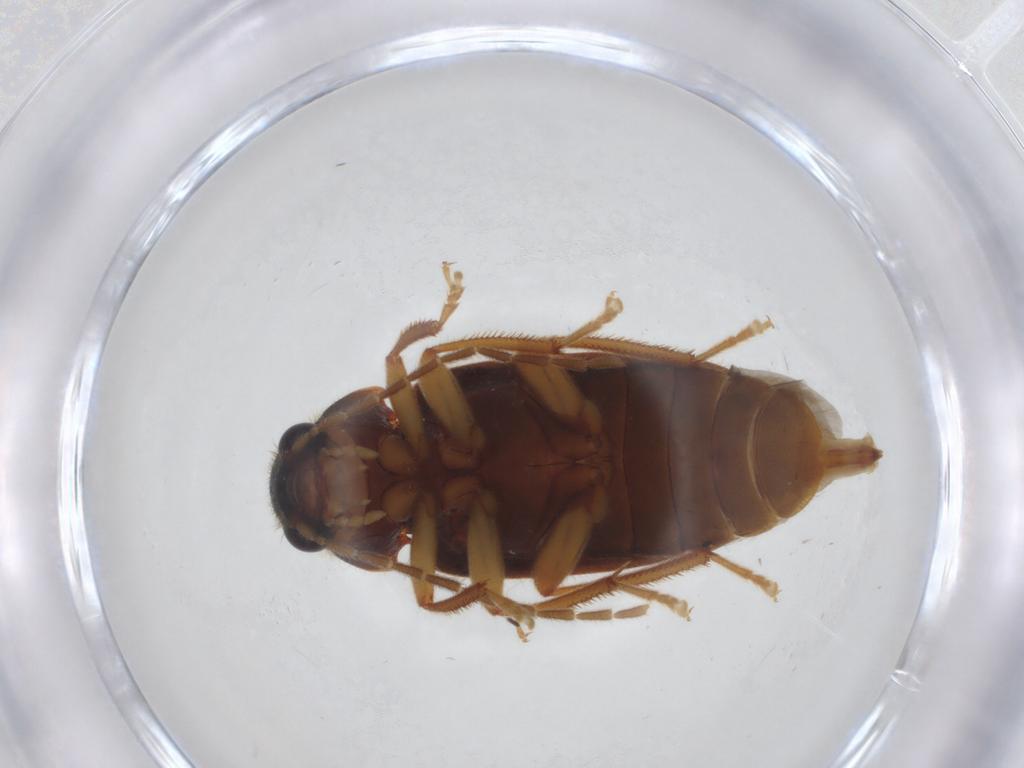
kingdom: Animalia
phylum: Arthropoda
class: Insecta
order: Coleoptera
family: Ptilodactylidae
